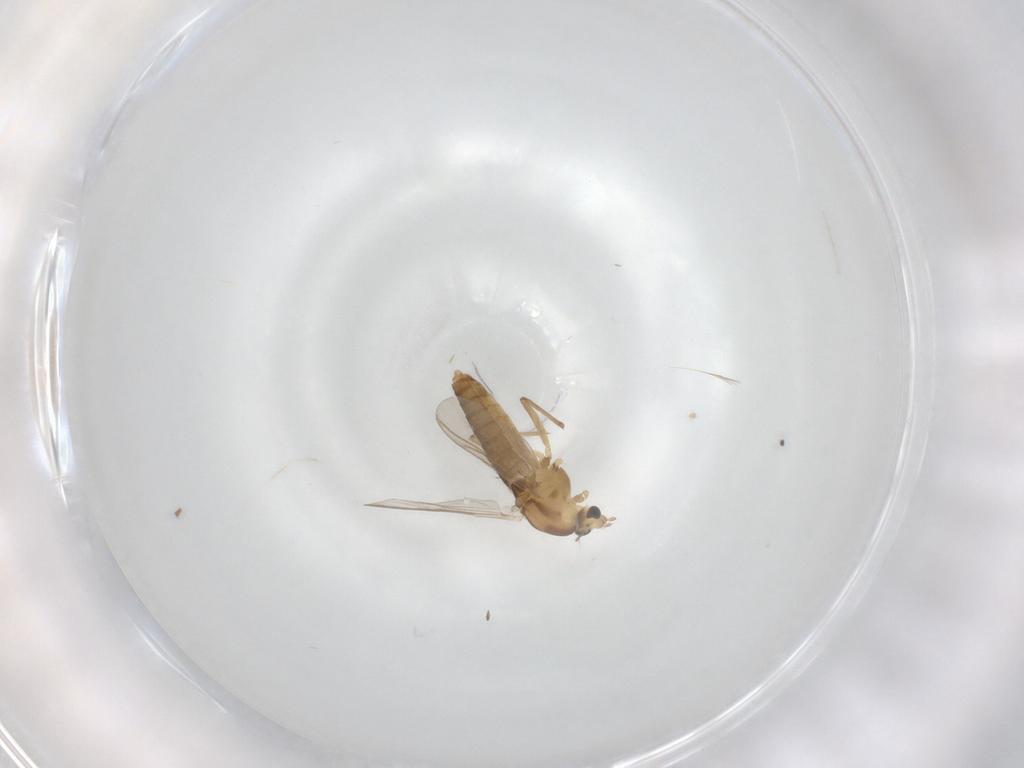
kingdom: Animalia
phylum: Arthropoda
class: Insecta
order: Diptera
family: Chironomidae
